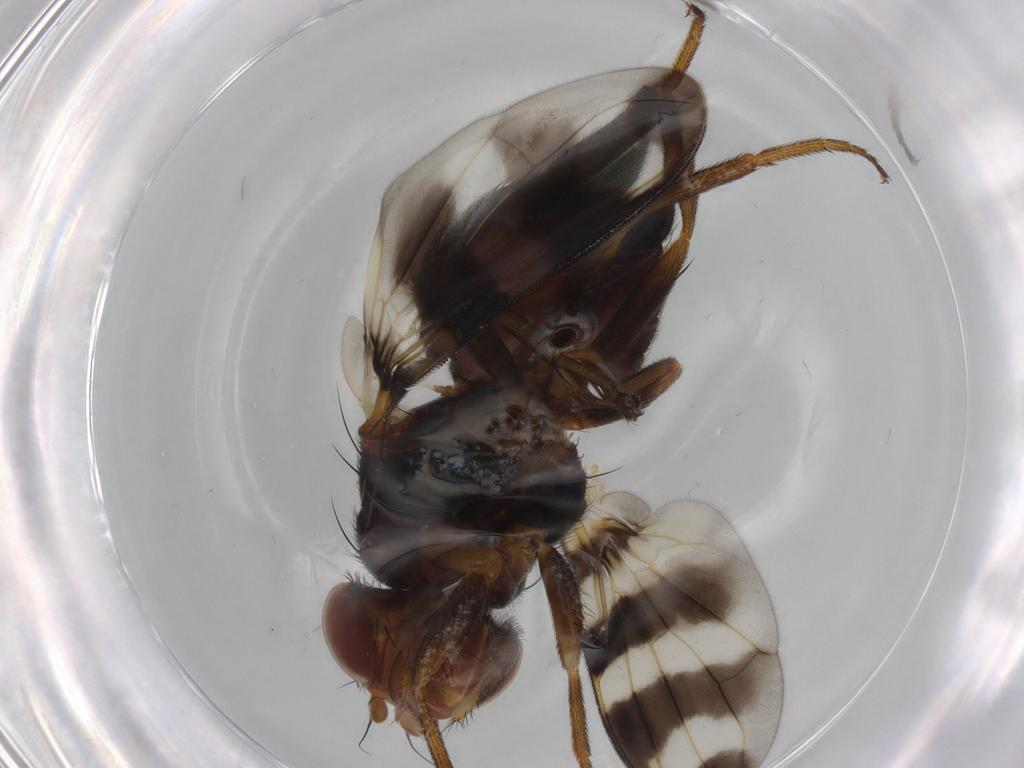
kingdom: Animalia
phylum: Arthropoda
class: Insecta
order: Diptera
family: Ulidiidae
